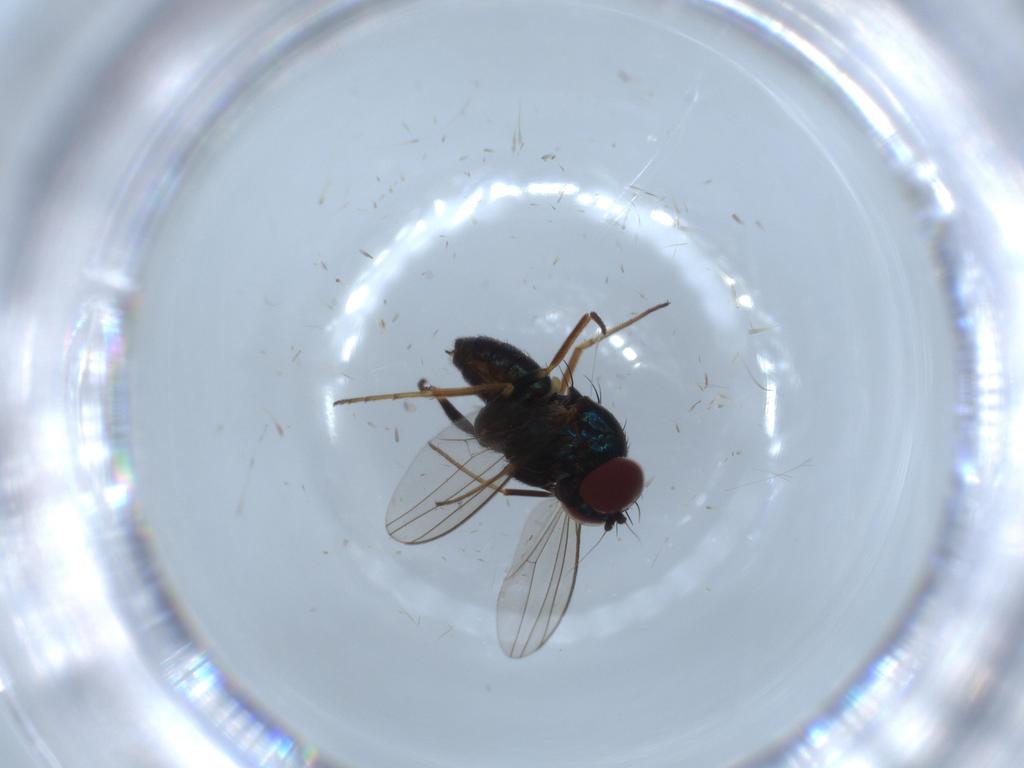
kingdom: Animalia
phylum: Arthropoda
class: Insecta
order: Diptera
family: Dolichopodidae
